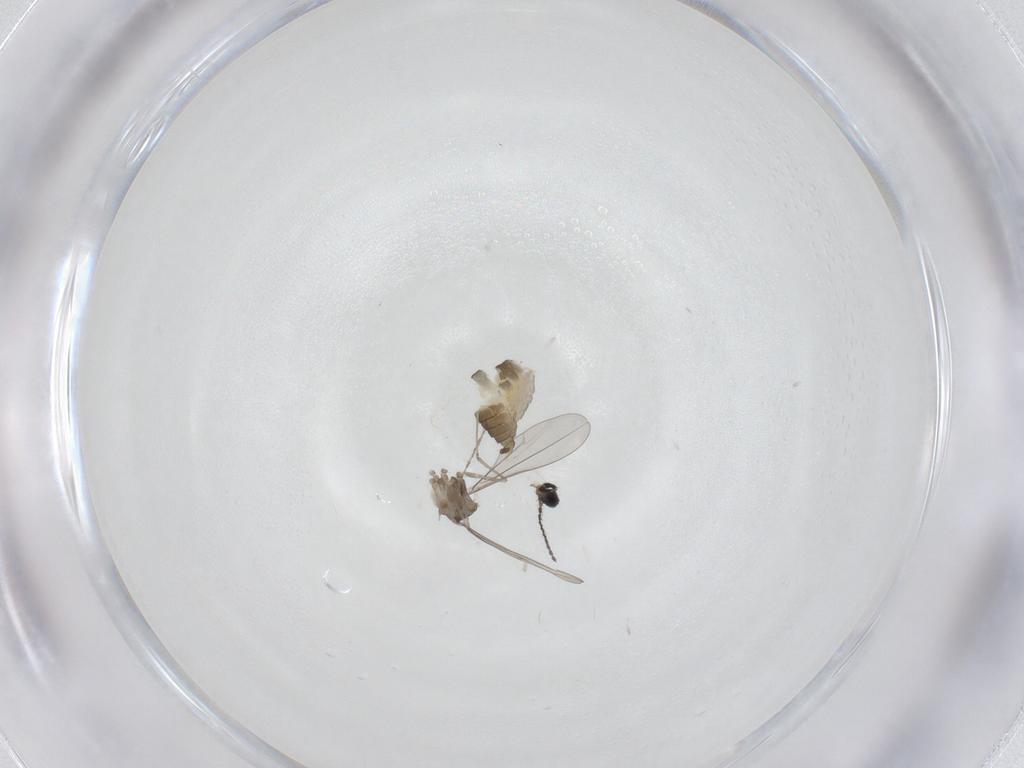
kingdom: Animalia
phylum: Arthropoda
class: Insecta
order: Diptera
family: Cecidomyiidae
